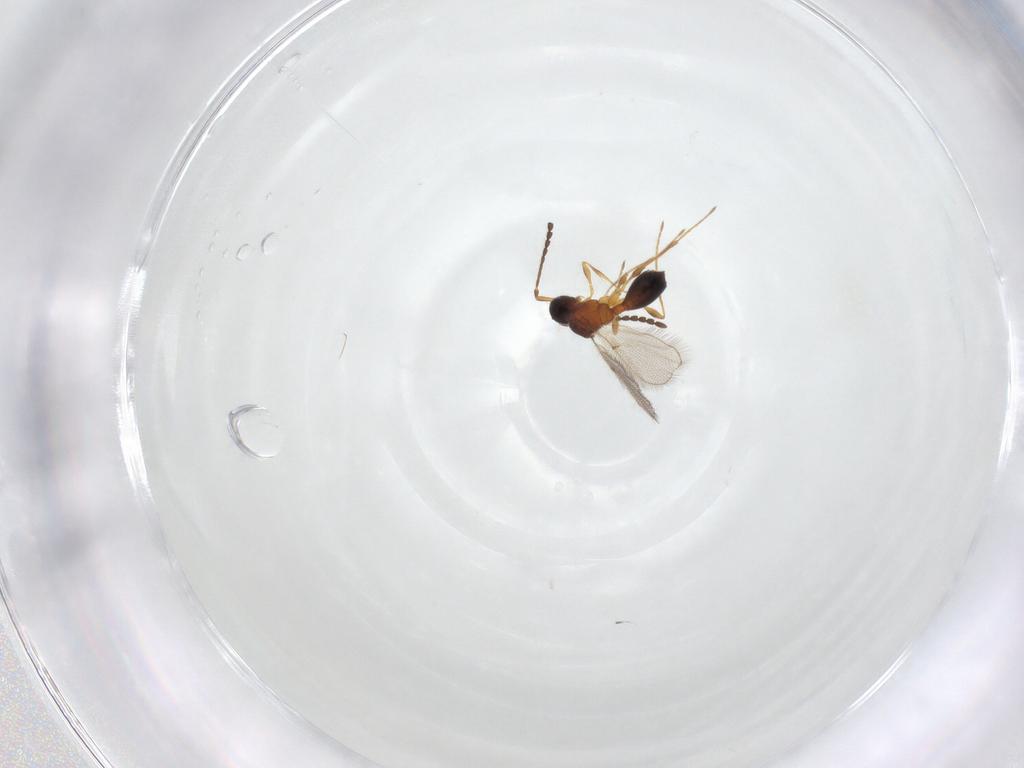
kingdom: Animalia
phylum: Arthropoda
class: Insecta
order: Hymenoptera
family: Diapriidae
